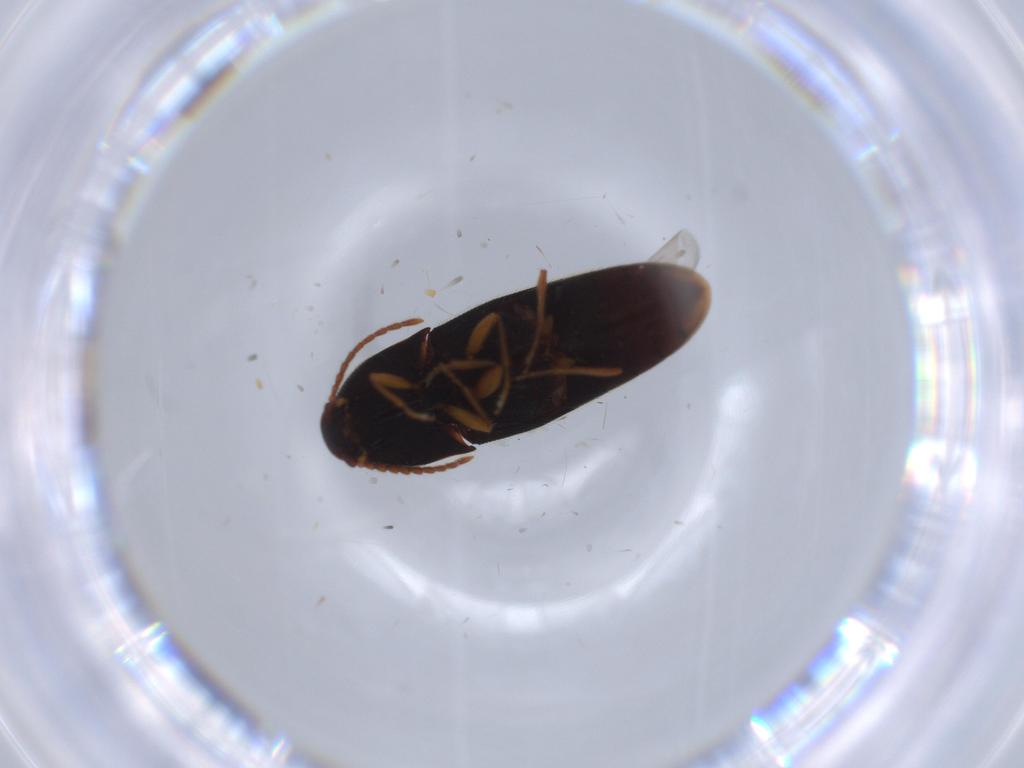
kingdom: Animalia
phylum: Arthropoda
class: Insecta
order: Coleoptera
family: Elateridae
